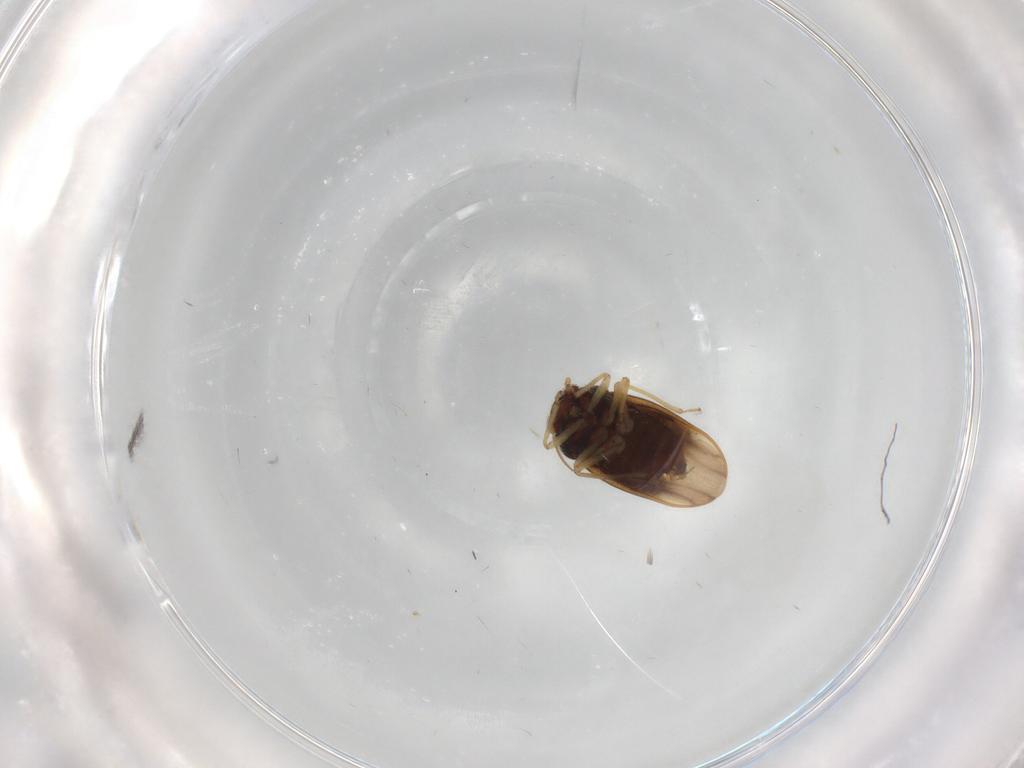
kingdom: Animalia
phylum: Arthropoda
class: Insecta
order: Hemiptera
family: Schizopteridae
